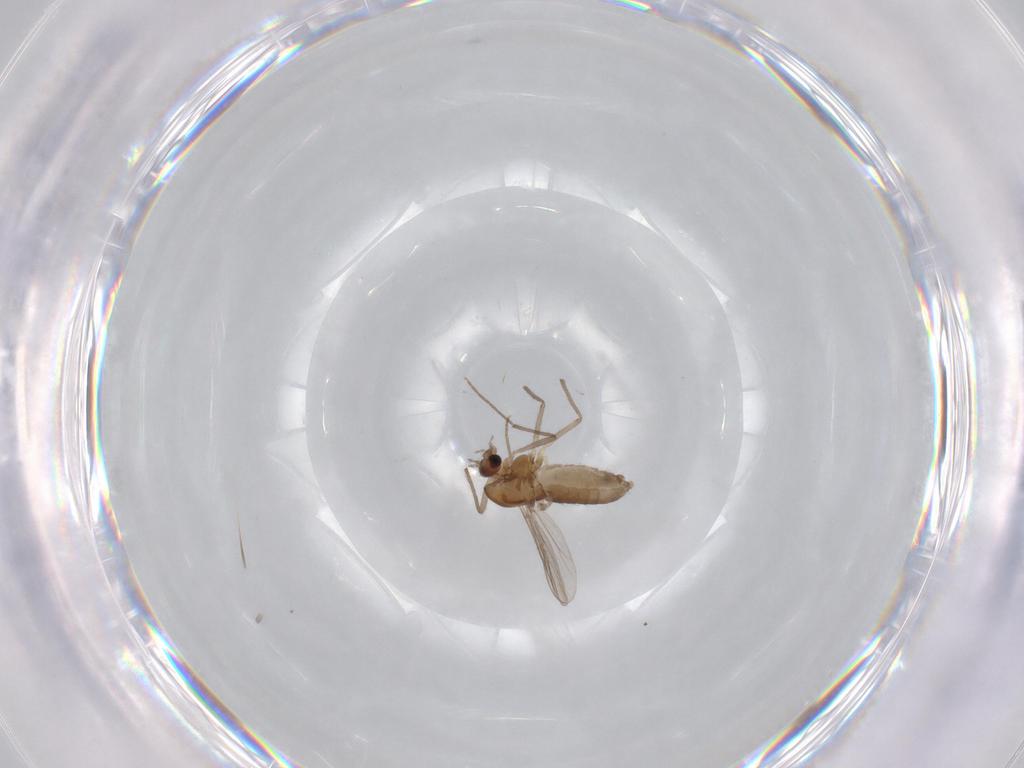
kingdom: Animalia
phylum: Arthropoda
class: Insecta
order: Diptera
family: Chironomidae
